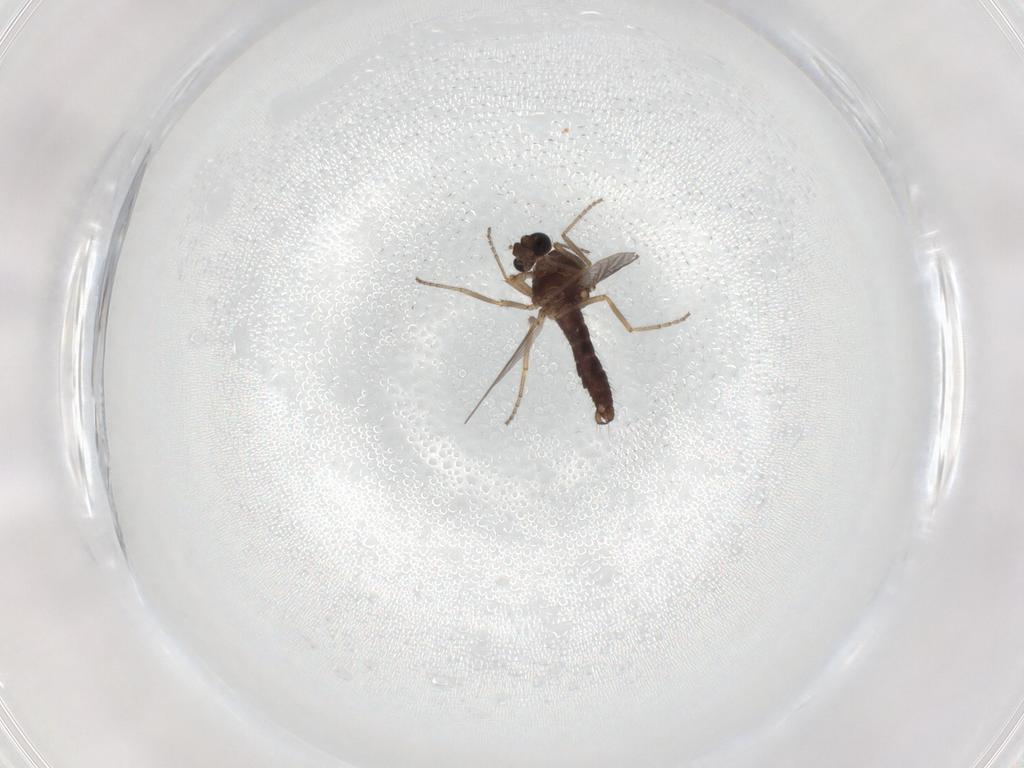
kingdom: Animalia
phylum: Arthropoda
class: Insecta
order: Diptera
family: Ceratopogonidae
